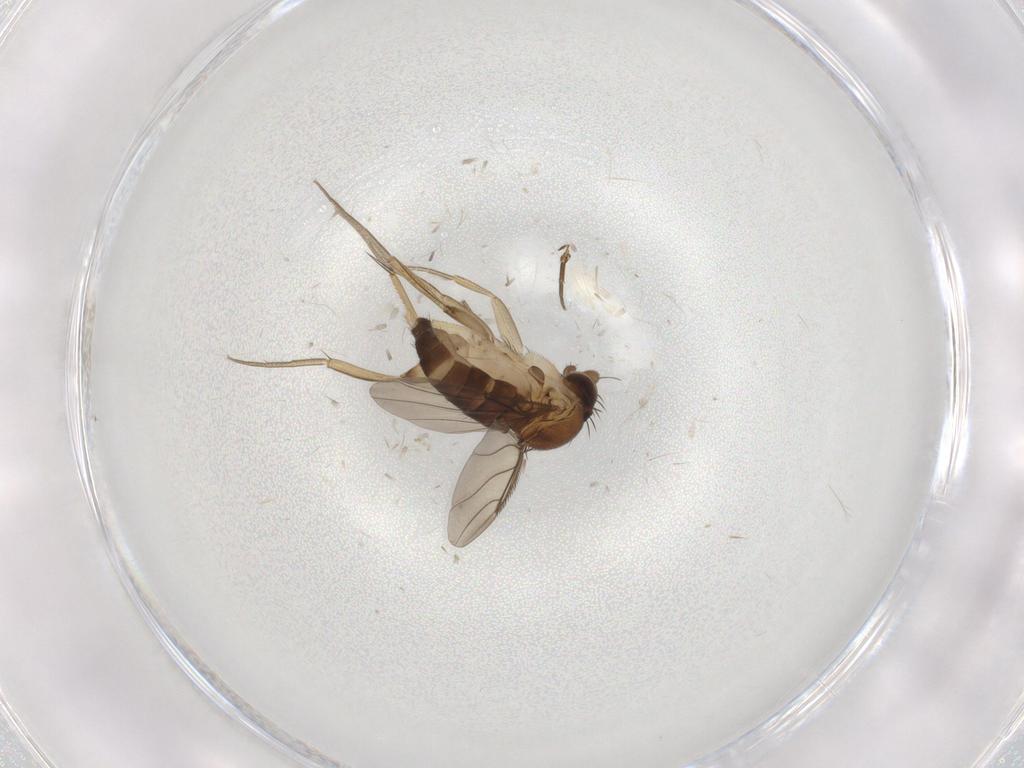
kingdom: Animalia
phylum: Arthropoda
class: Insecta
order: Diptera
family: Phoridae
